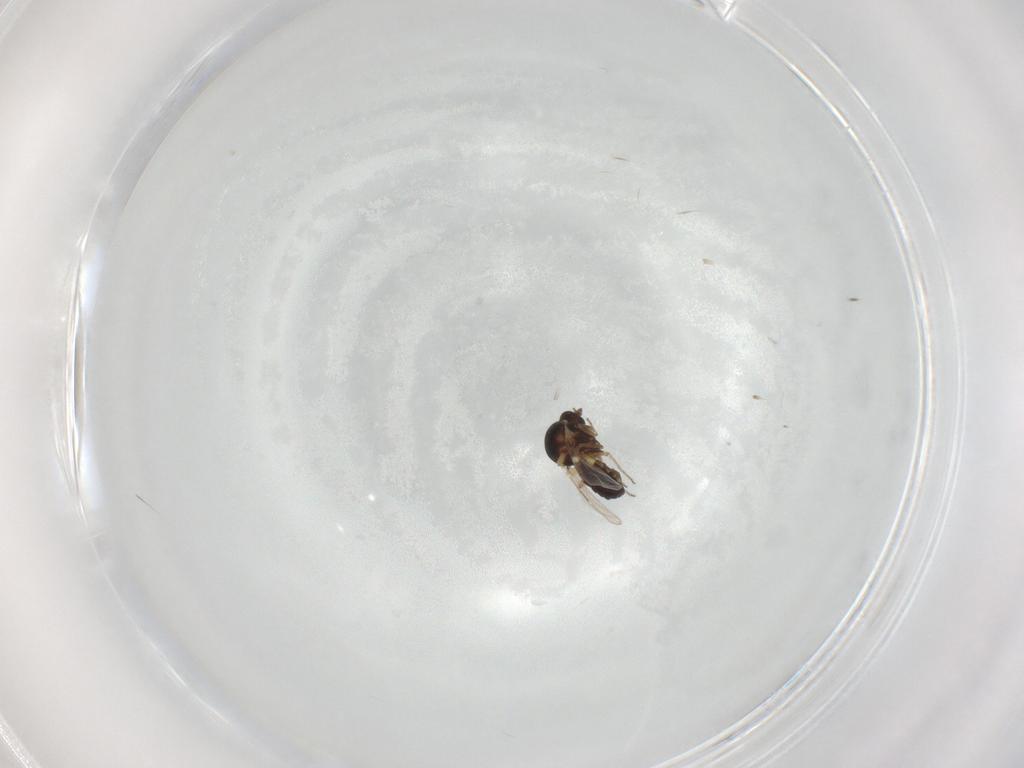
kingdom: Animalia
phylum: Arthropoda
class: Insecta
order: Diptera
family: Ceratopogonidae
